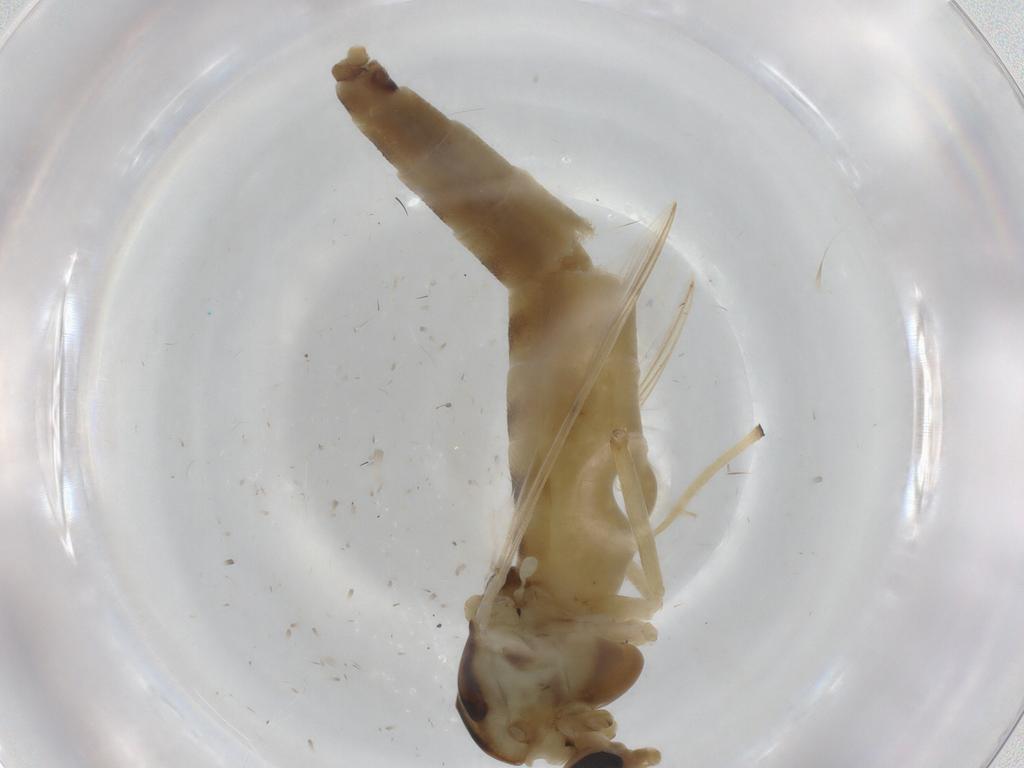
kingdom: Animalia
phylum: Arthropoda
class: Insecta
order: Diptera
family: Chironomidae
